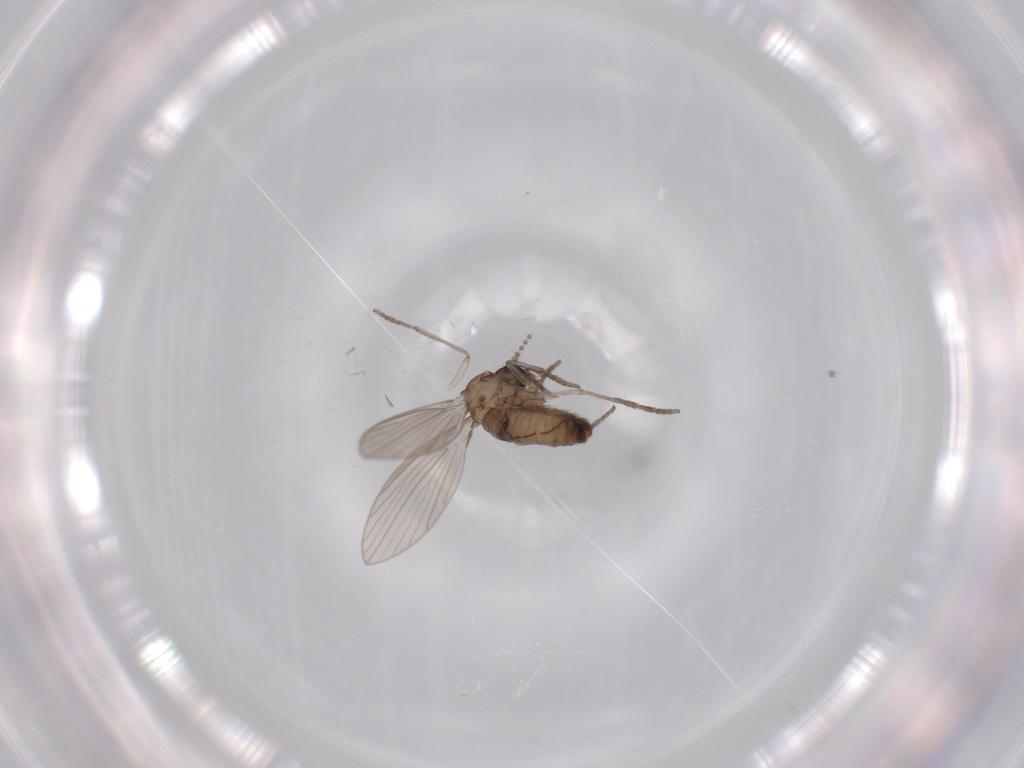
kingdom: Animalia
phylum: Arthropoda
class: Insecta
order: Diptera
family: Psychodidae
